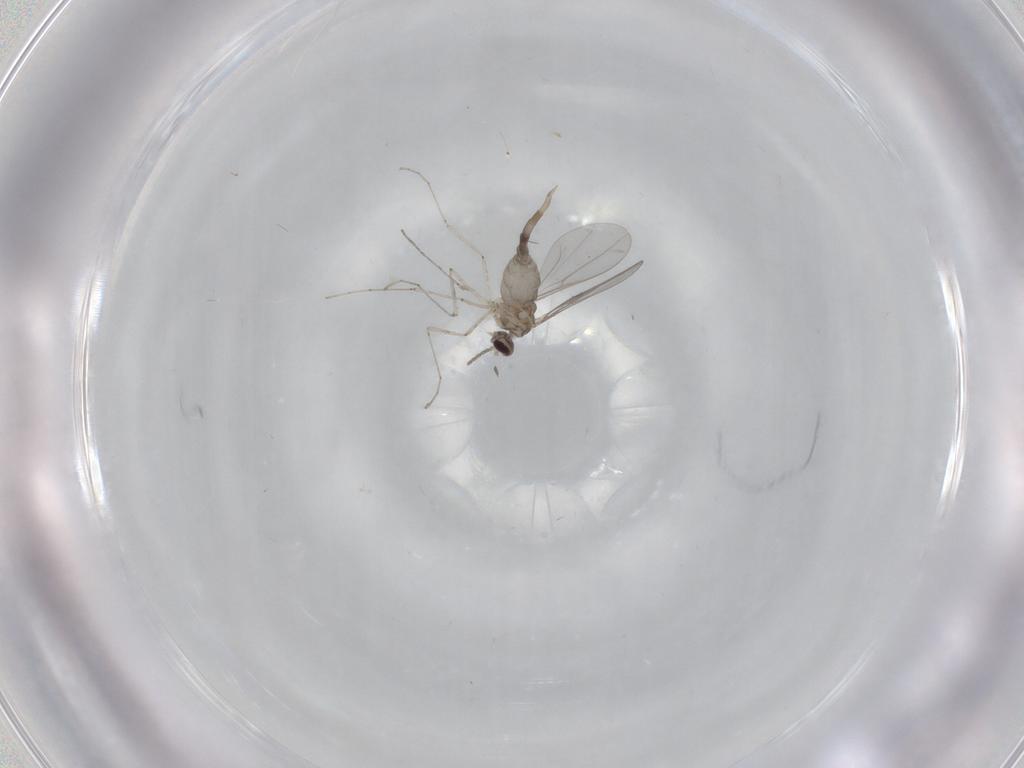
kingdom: Animalia
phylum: Arthropoda
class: Insecta
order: Diptera
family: Cecidomyiidae
